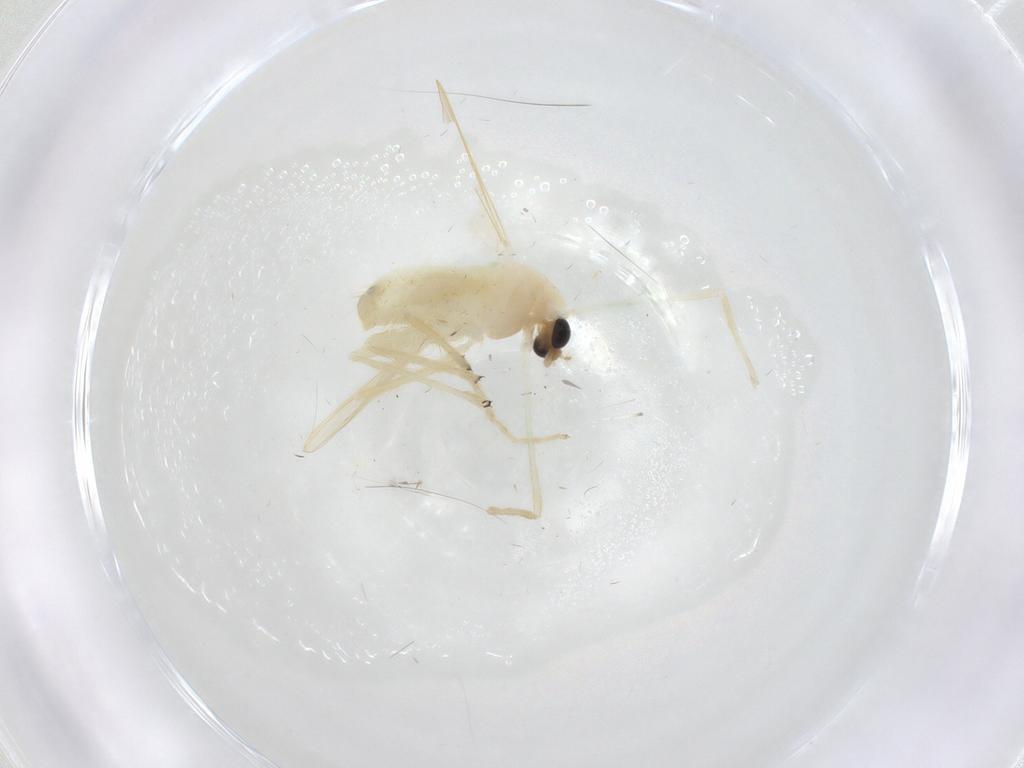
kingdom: Animalia
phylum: Arthropoda
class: Insecta
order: Diptera
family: Chironomidae
